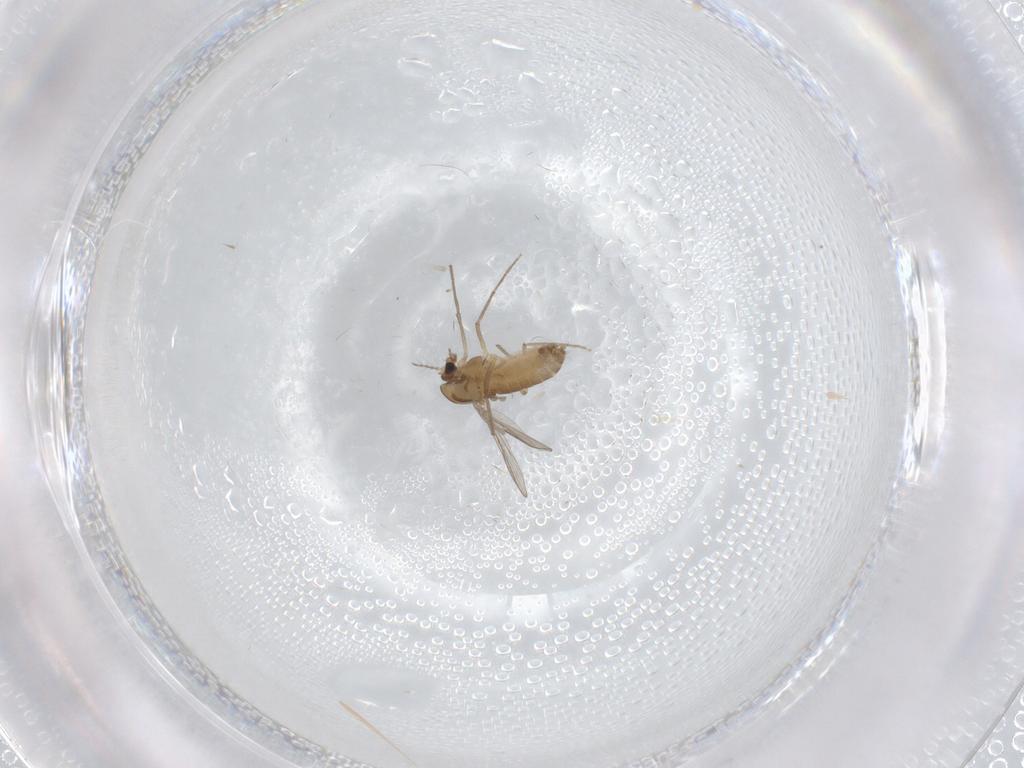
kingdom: Animalia
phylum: Arthropoda
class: Insecta
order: Diptera
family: Chironomidae
